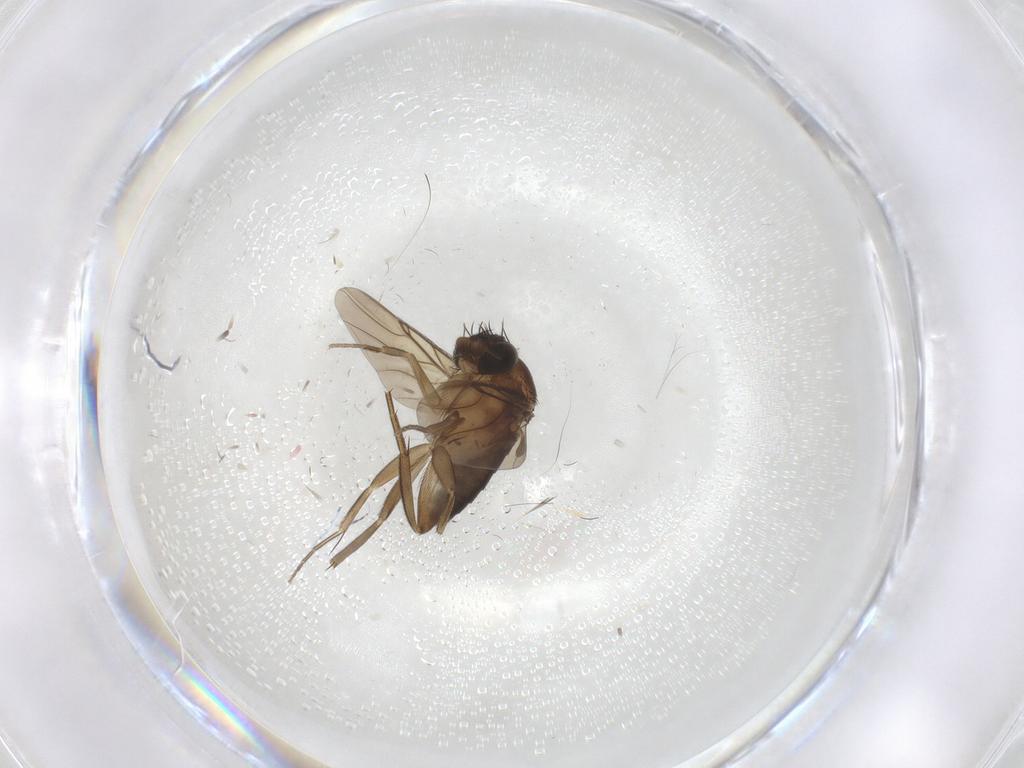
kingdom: Animalia
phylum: Arthropoda
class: Insecta
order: Diptera
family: Phoridae
